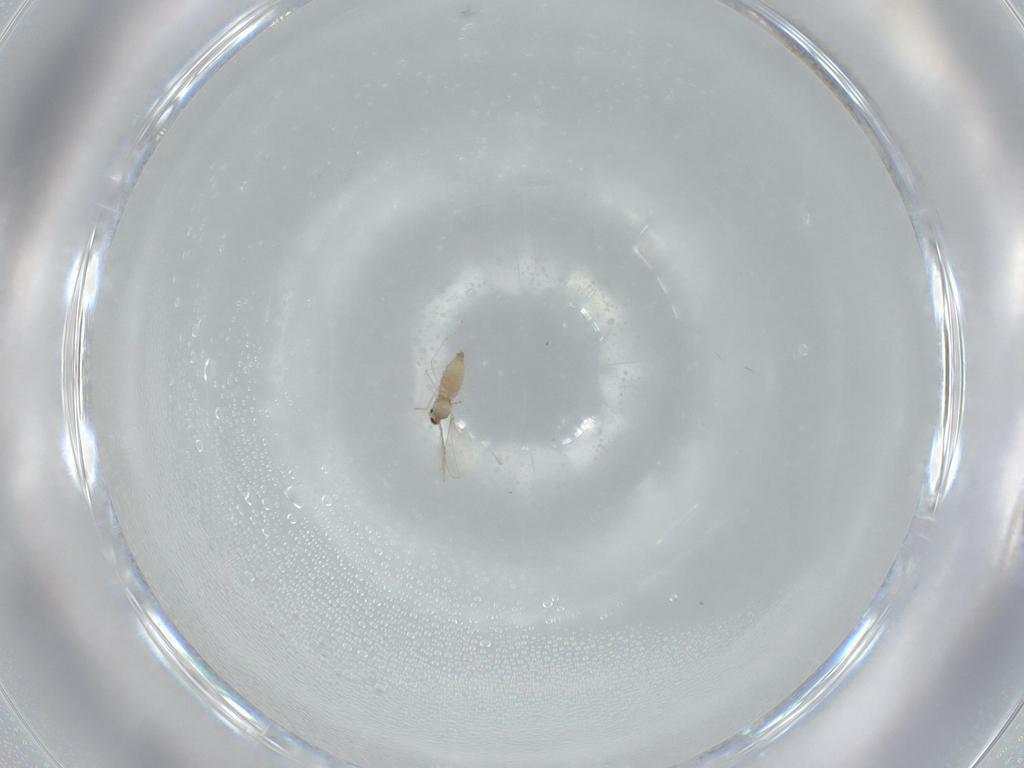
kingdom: Animalia
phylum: Arthropoda
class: Insecta
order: Diptera
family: Cecidomyiidae
